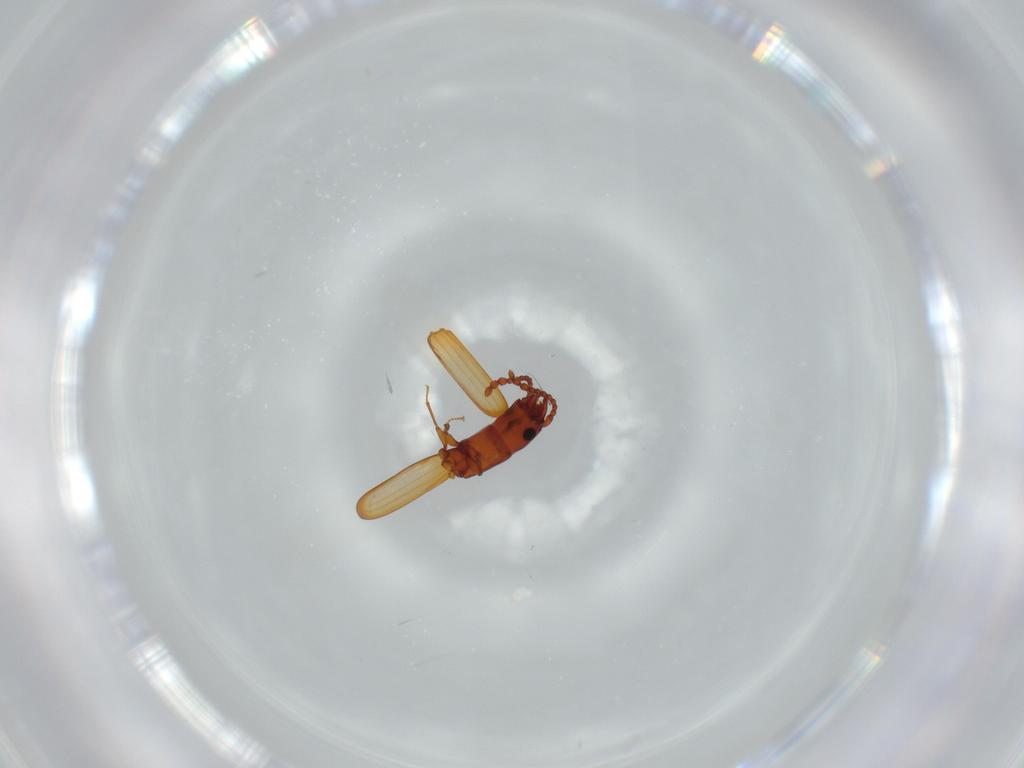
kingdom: Animalia
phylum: Arthropoda
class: Insecta
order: Coleoptera
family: Laemophloeidae
